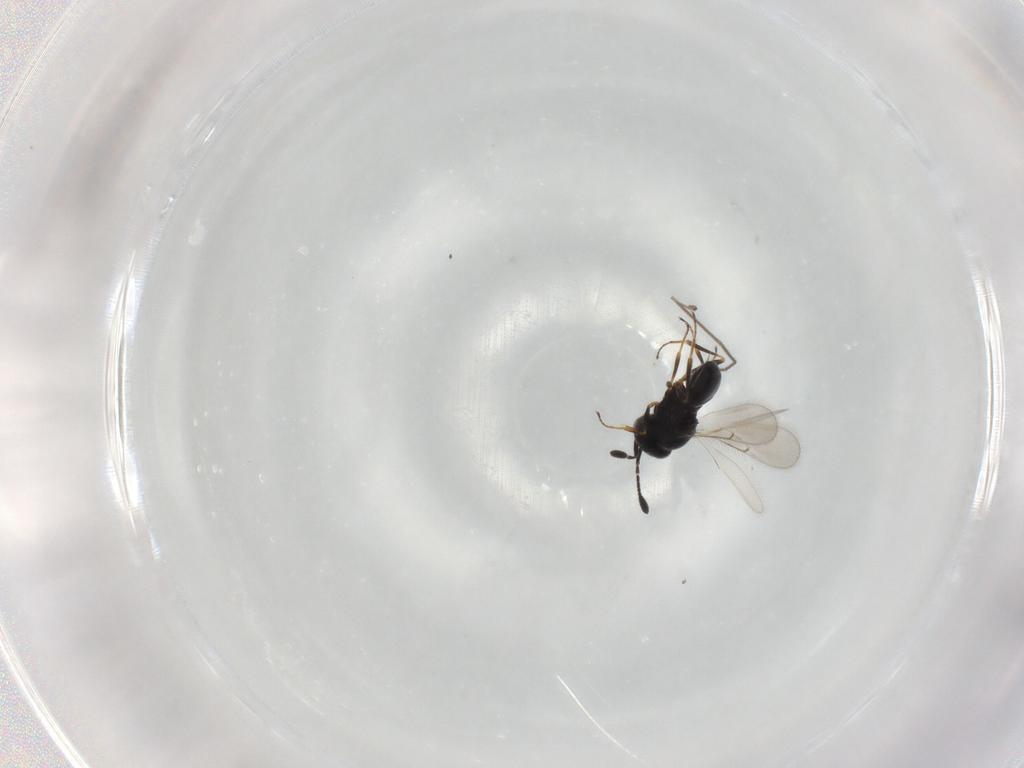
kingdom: Animalia
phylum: Arthropoda
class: Insecta
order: Hymenoptera
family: Scelionidae
